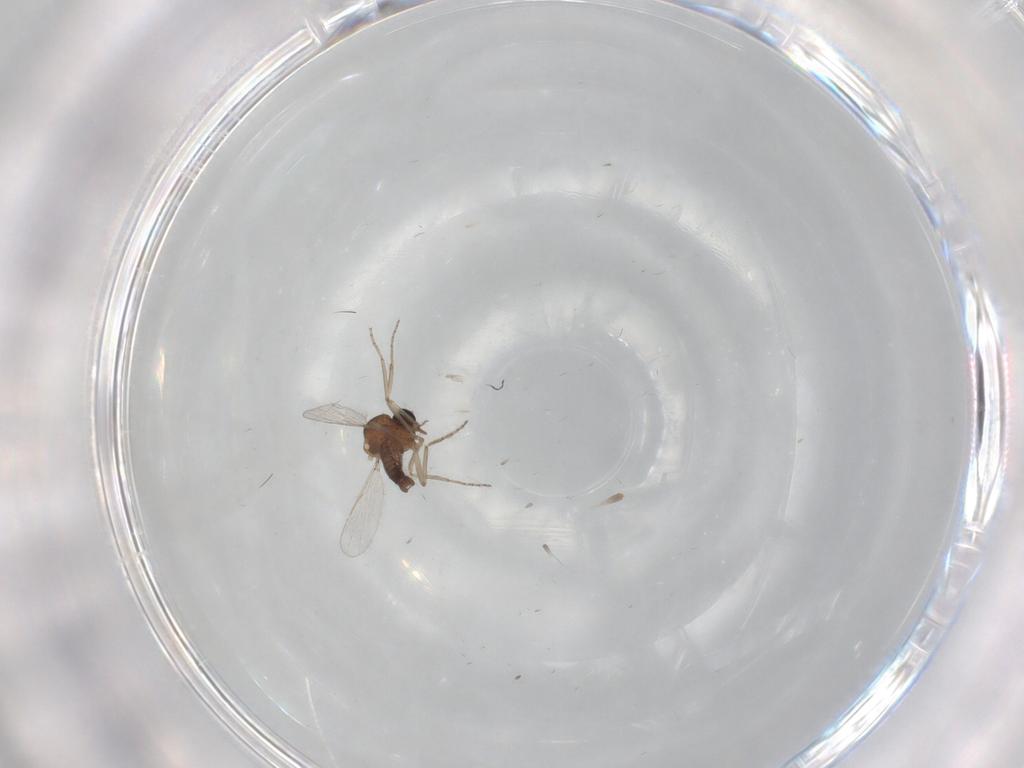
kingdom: Animalia
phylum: Arthropoda
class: Insecta
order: Diptera
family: Ceratopogonidae
